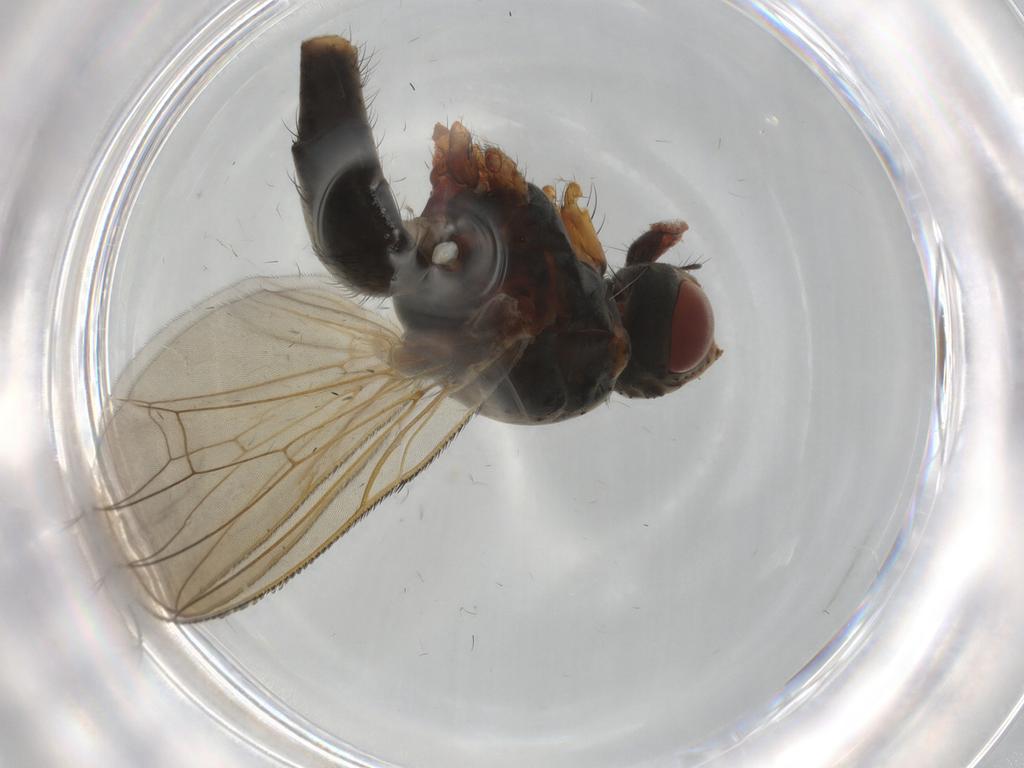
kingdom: Animalia
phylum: Arthropoda
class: Insecta
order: Diptera
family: Anthomyiidae
